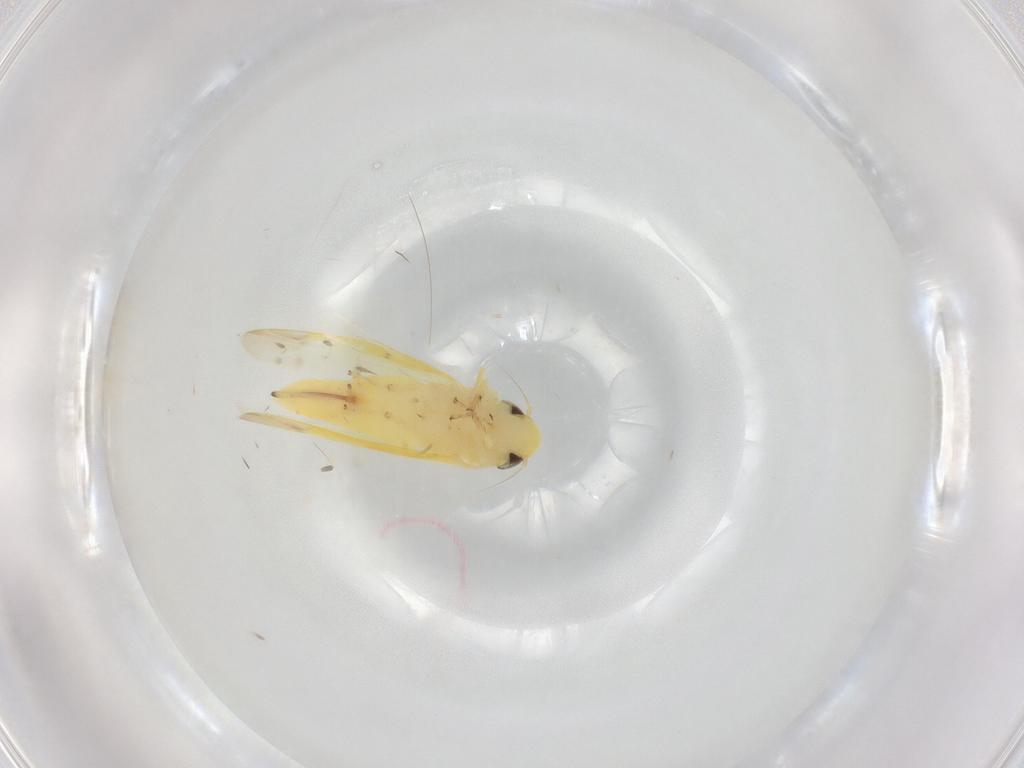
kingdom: Animalia
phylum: Arthropoda
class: Insecta
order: Hemiptera
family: Cicadellidae
